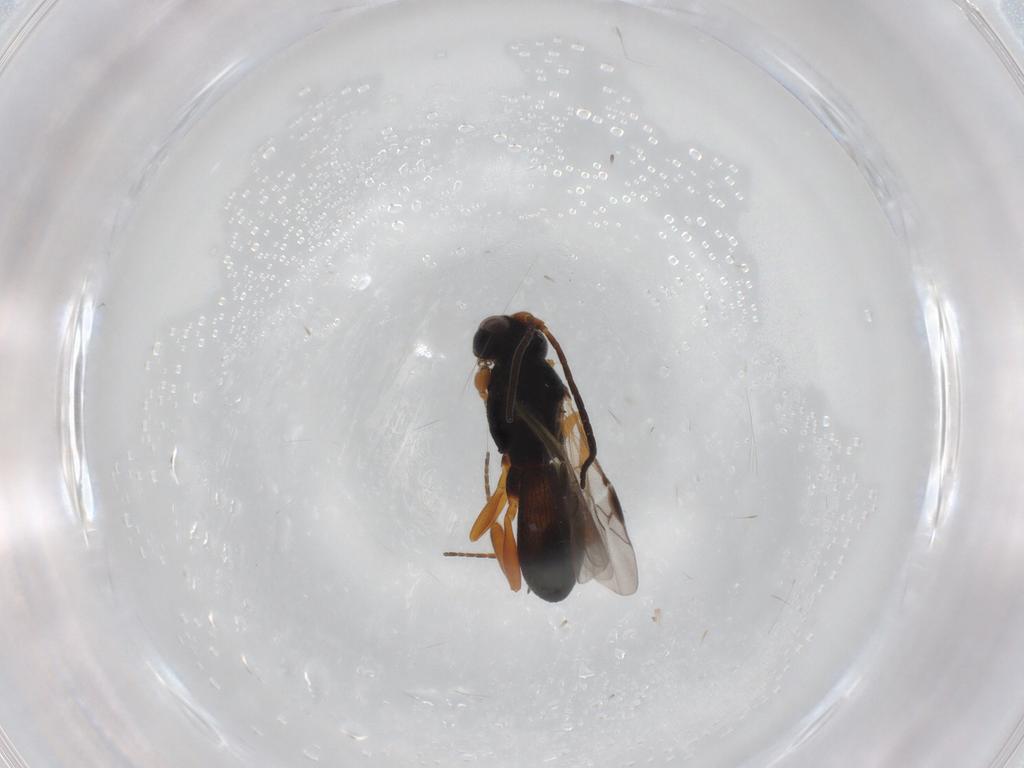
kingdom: Animalia
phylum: Arthropoda
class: Insecta
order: Hymenoptera
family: Braconidae
